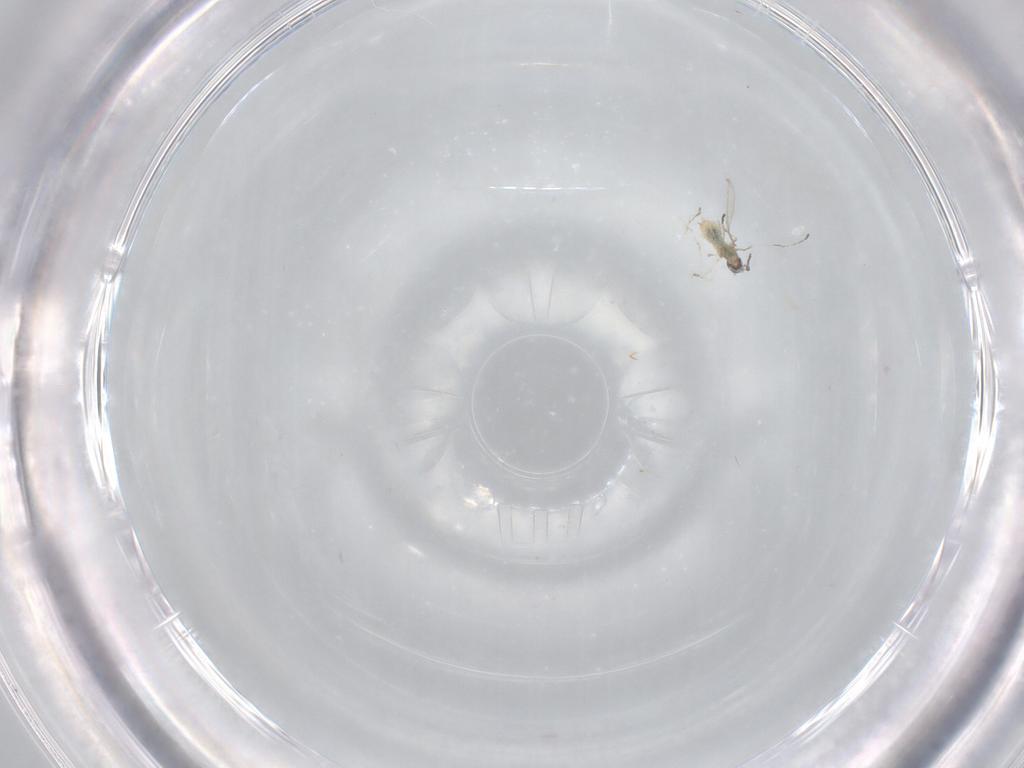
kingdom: Animalia
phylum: Arthropoda
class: Insecta
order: Diptera
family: Cecidomyiidae
